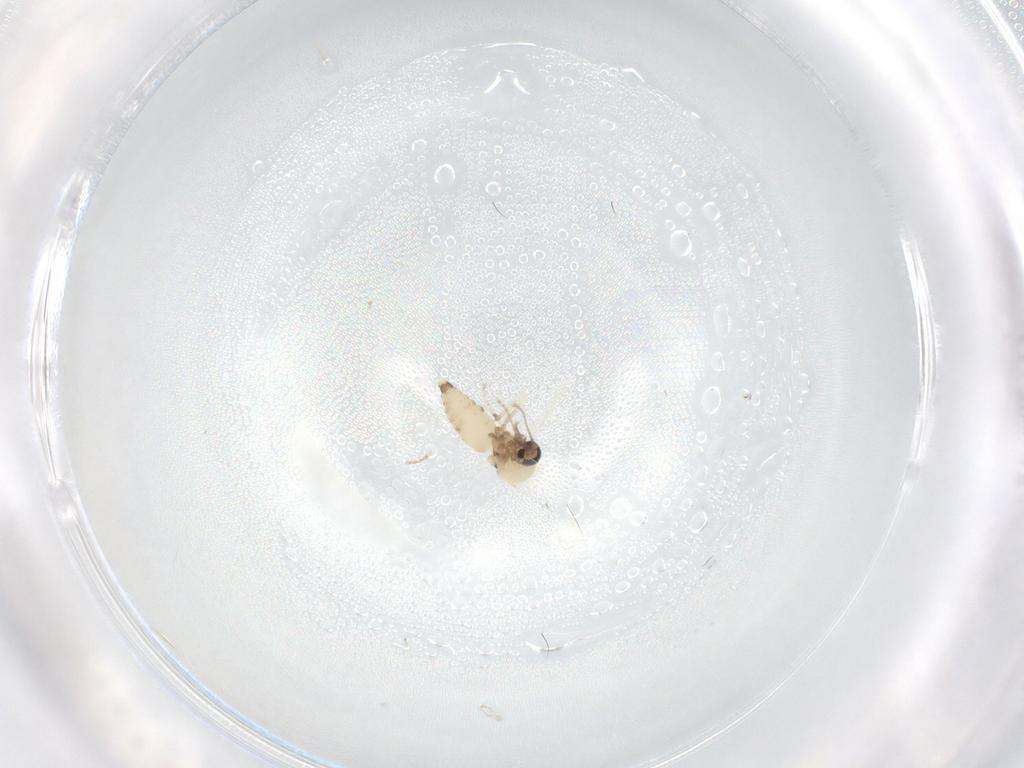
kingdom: Animalia
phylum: Arthropoda
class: Insecta
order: Diptera
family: Ceratopogonidae
